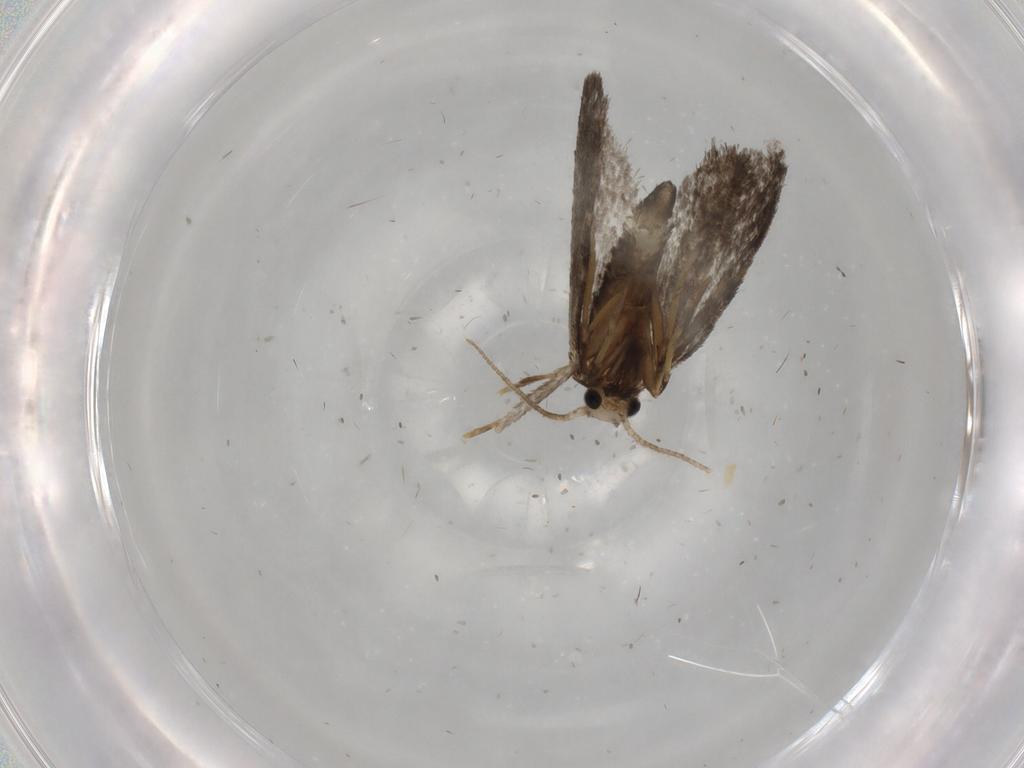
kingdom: Animalia
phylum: Arthropoda
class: Insecta
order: Lepidoptera
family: Psychidae
